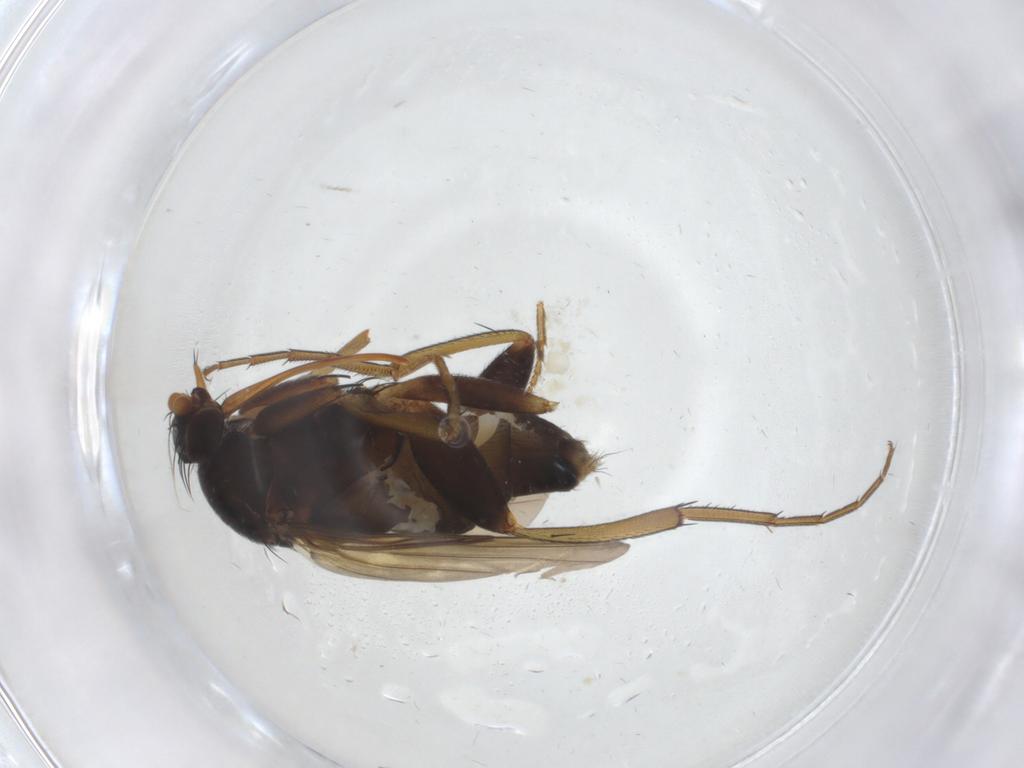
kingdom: Animalia
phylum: Arthropoda
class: Insecta
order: Diptera
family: Phoridae
